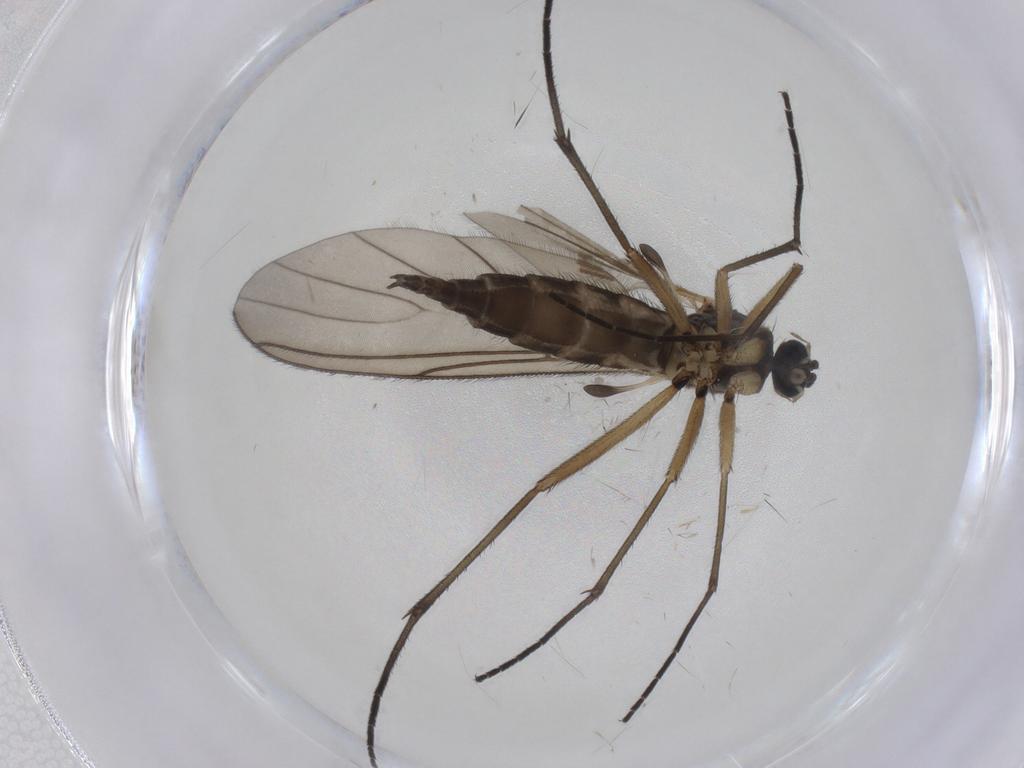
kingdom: Animalia
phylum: Arthropoda
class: Insecta
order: Diptera
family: Sciaridae
